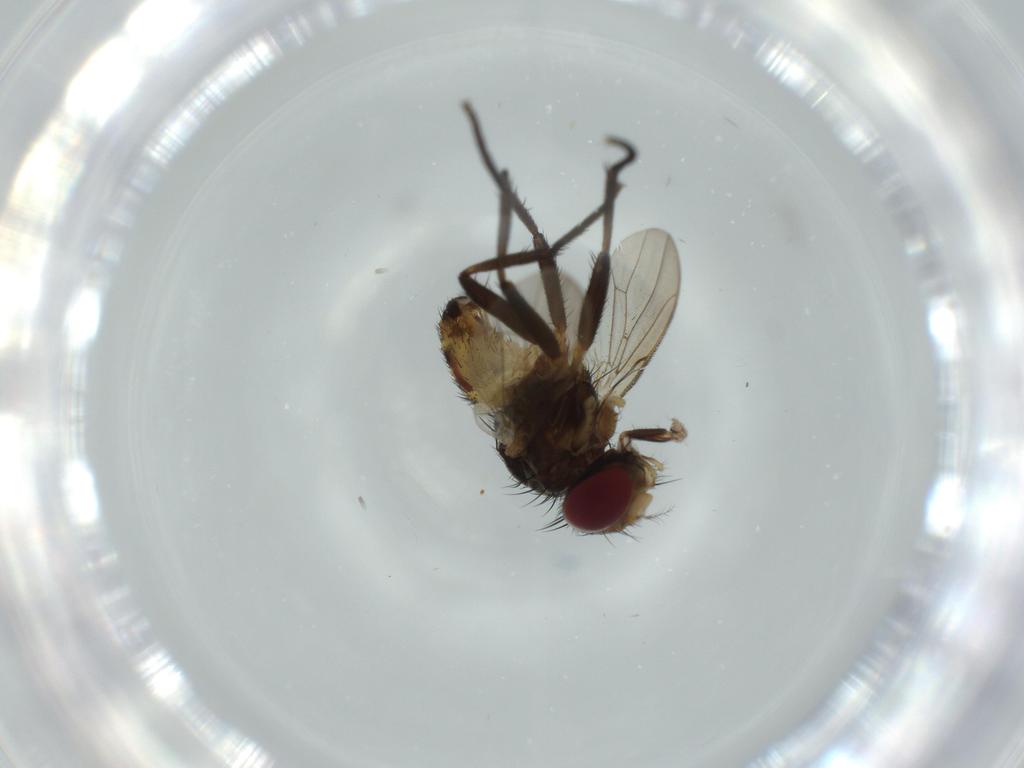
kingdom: Animalia
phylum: Arthropoda
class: Insecta
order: Diptera
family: Anthomyiidae
